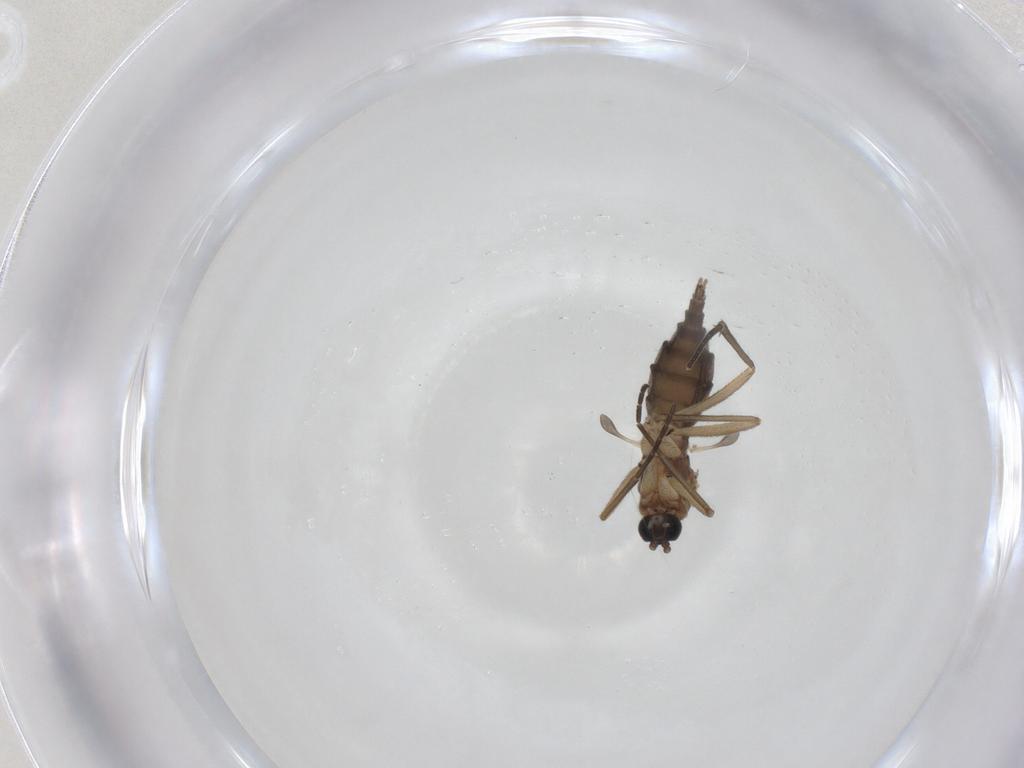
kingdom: Animalia
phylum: Arthropoda
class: Insecta
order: Diptera
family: Sciaridae
